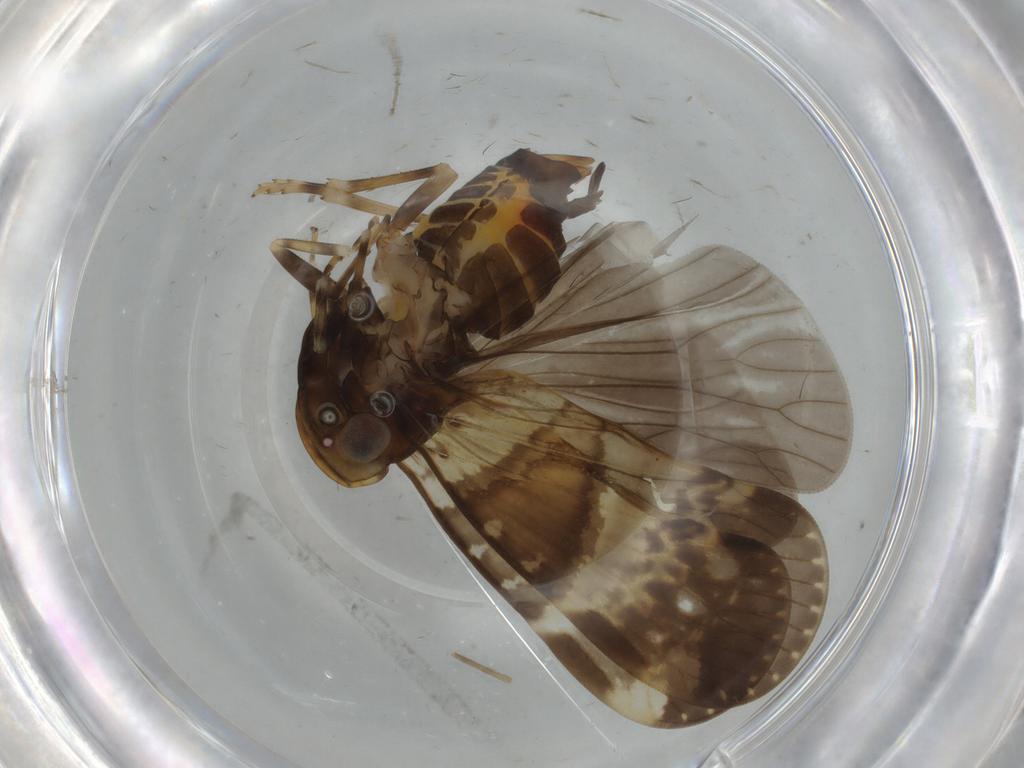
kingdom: Animalia
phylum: Arthropoda
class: Insecta
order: Hemiptera
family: Cixiidae
